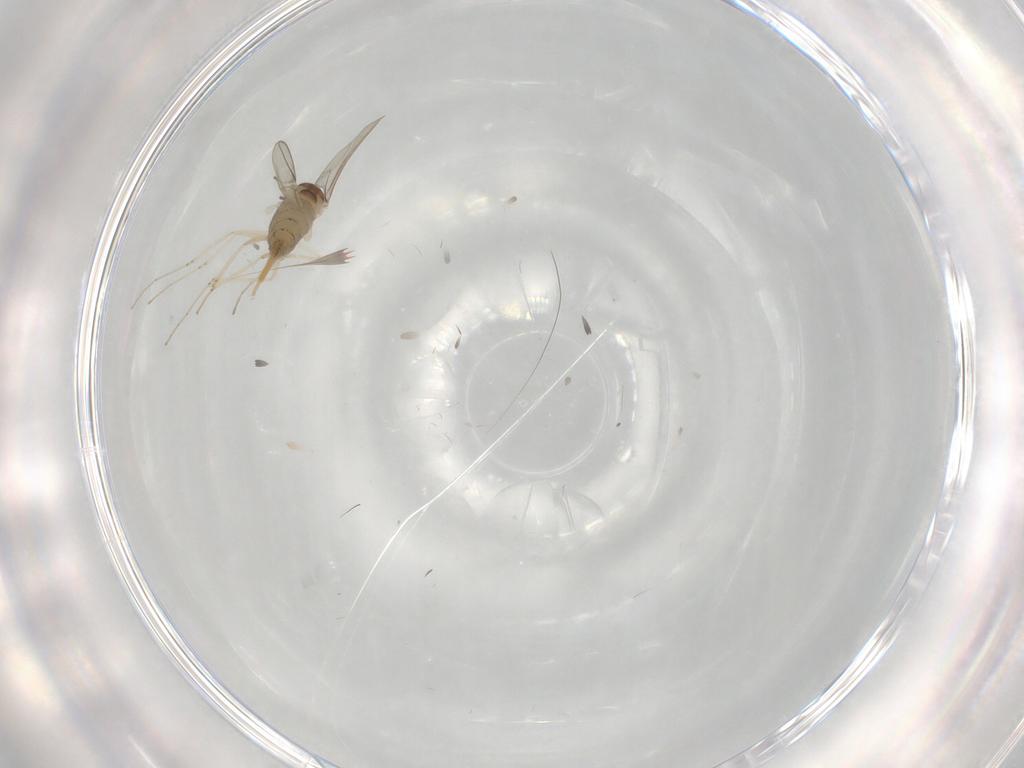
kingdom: Animalia
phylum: Arthropoda
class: Insecta
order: Diptera
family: Cecidomyiidae
